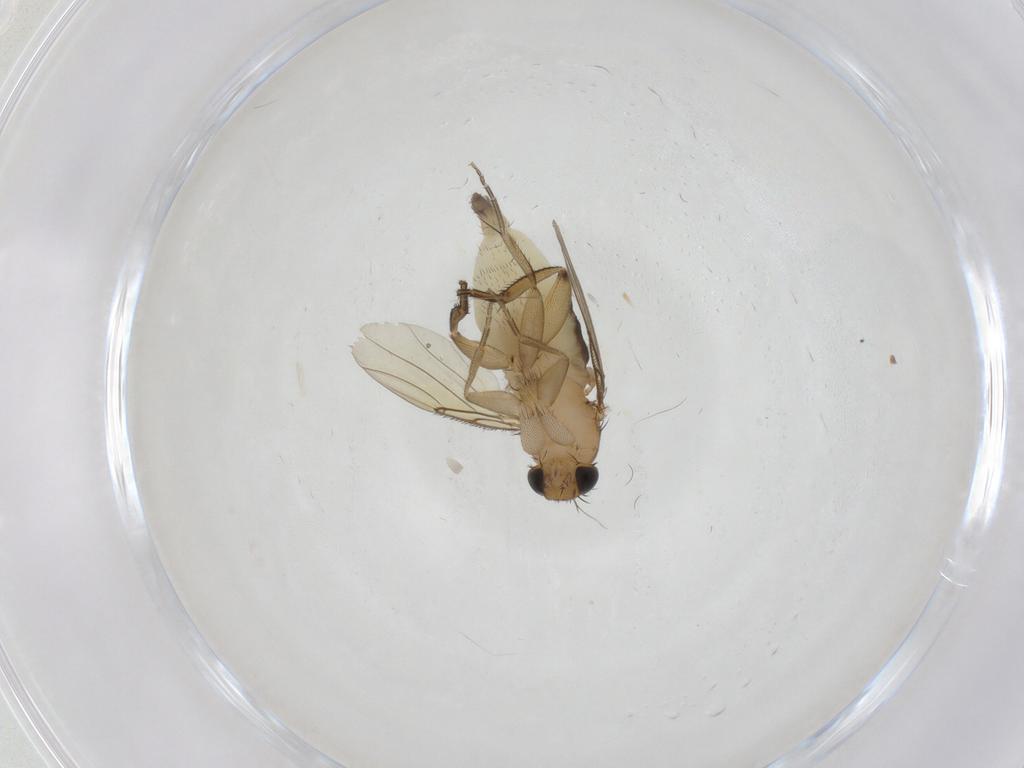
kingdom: Animalia
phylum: Arthropoda
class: Insecta
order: Diptera
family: Phoridae
